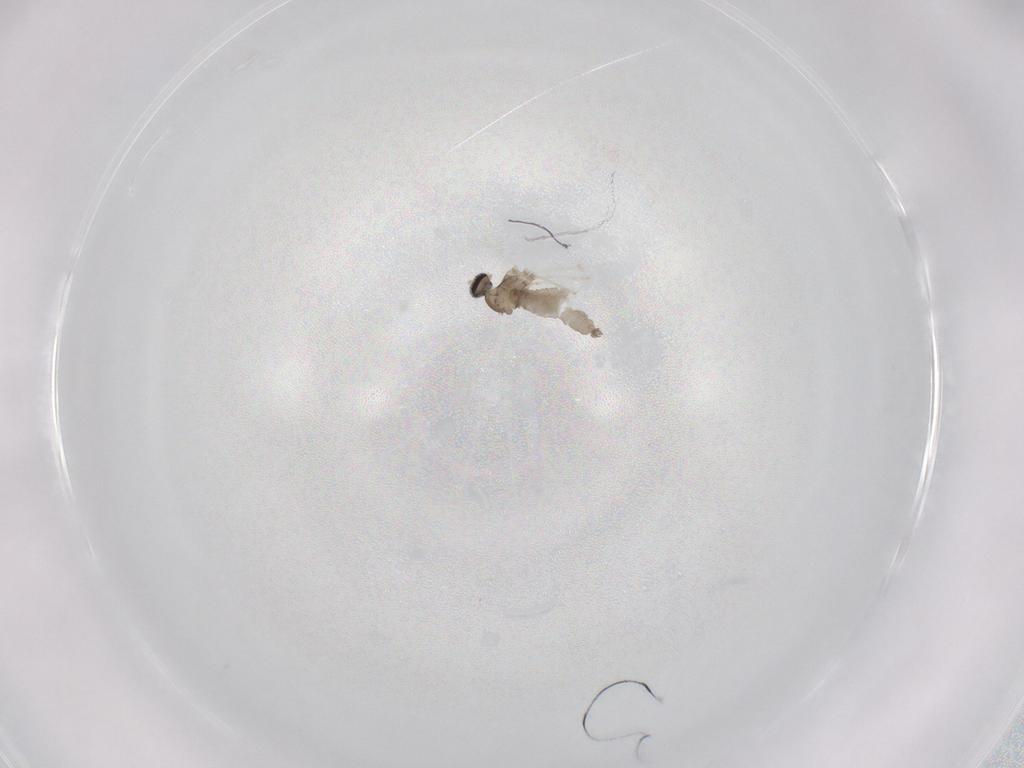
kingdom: Animalia
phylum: Arthropoda
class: Insecta
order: Diptera
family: Cecidomyiidae
